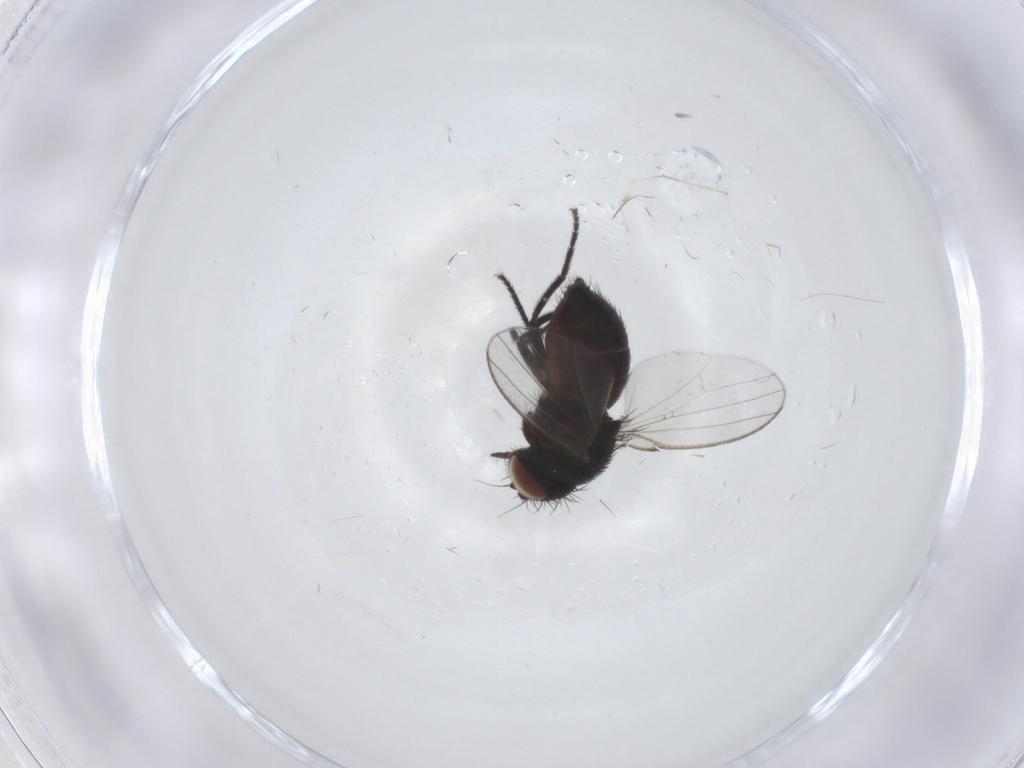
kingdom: Animalia
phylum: Arthropoda
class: Insecta
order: Diptera
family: Milichiidae
